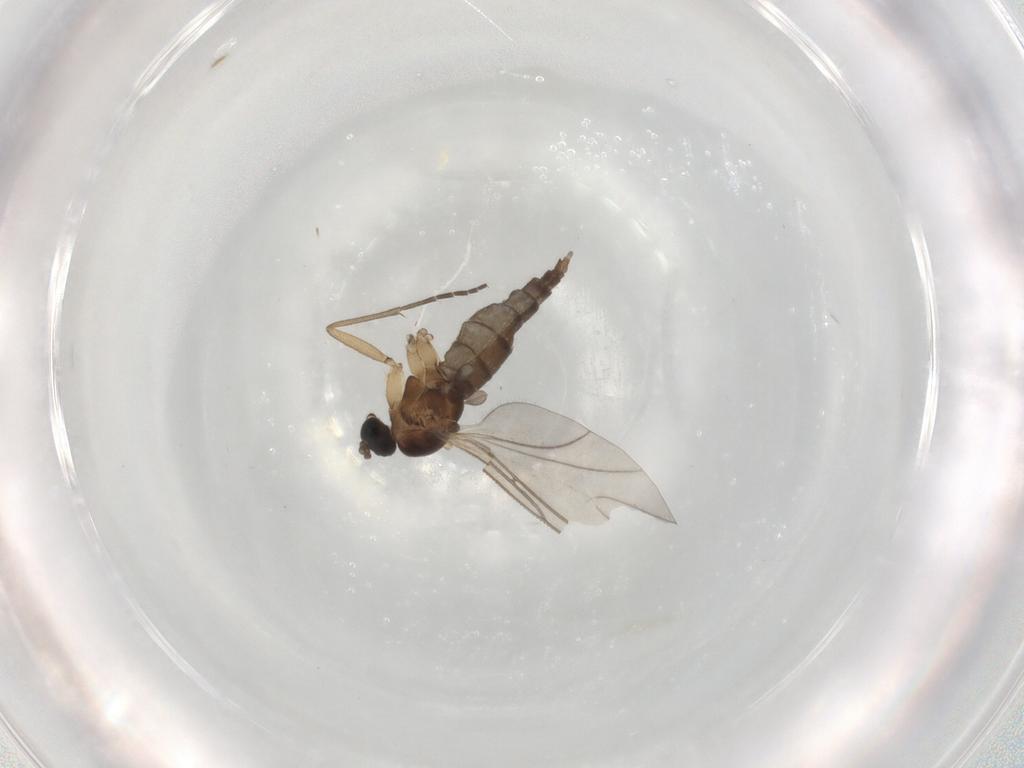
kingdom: Animalia
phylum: Arthropoda
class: Insecta
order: Diptera
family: Sciaridae
